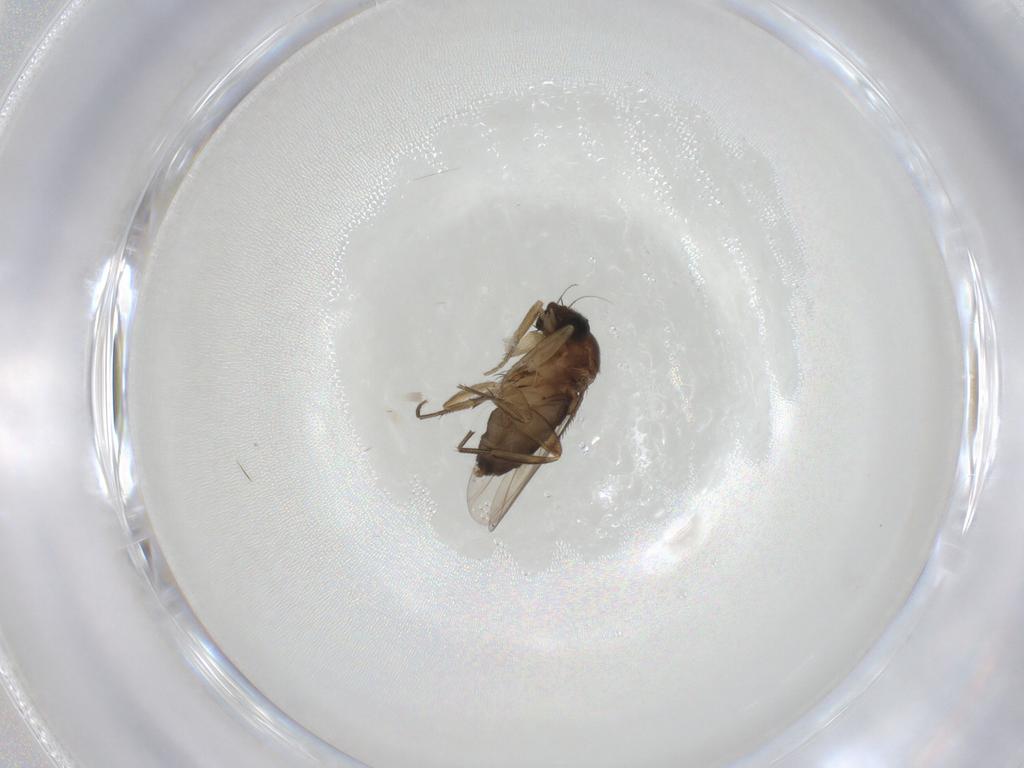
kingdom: Animalia
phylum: Arthropoda
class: Insecta
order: Diptera
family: Phoridae
